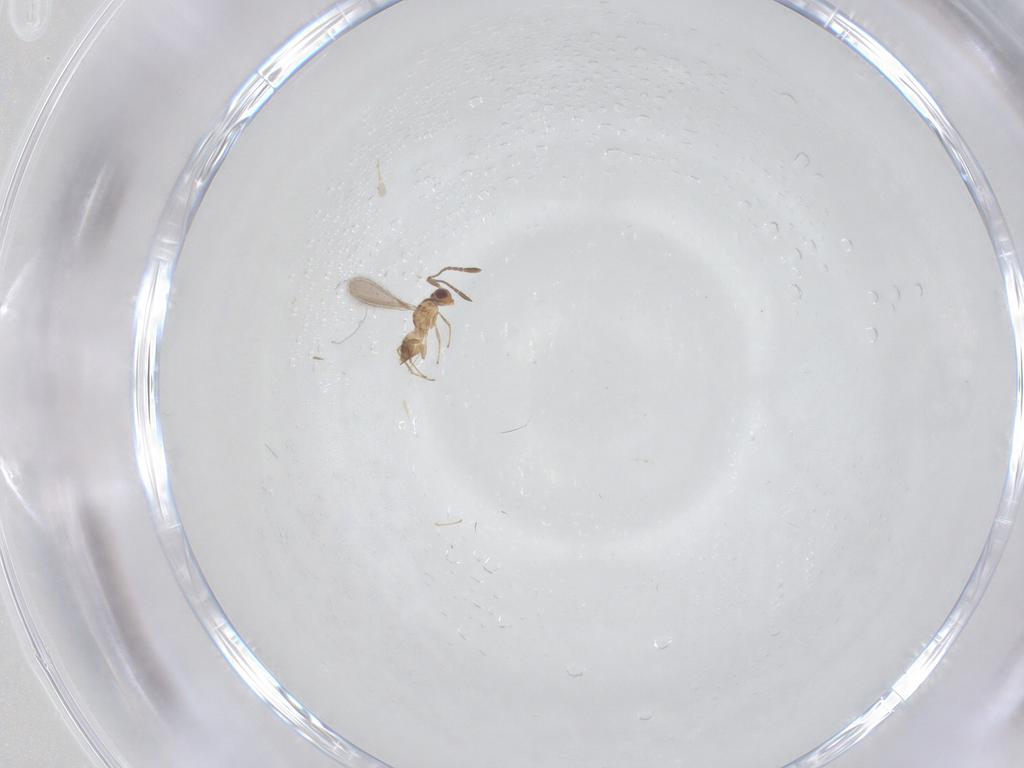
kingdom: Animalia
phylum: Arthropoda
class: Insecta
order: Hymenoptera
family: Mymaridae
